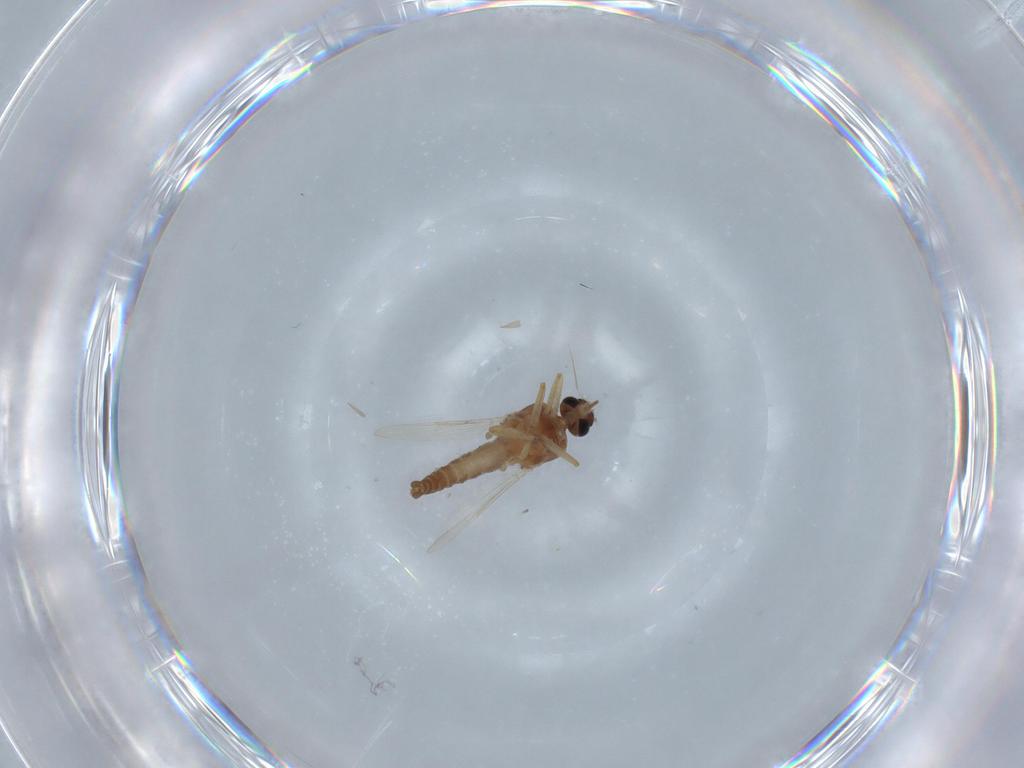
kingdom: Animalia
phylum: Arthropoda
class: Insecta
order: Diptera
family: Ceratopogonidae
